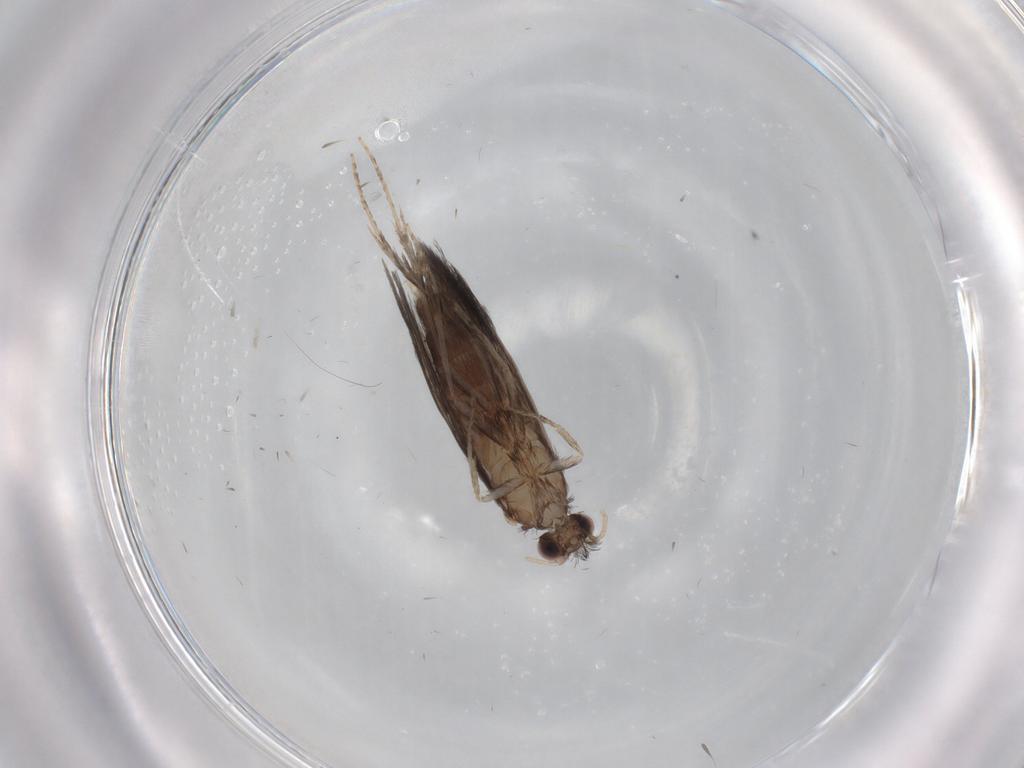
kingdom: Animalia
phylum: Arthropoda
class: Insecta
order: Trichoptera
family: Hydroptilidae
